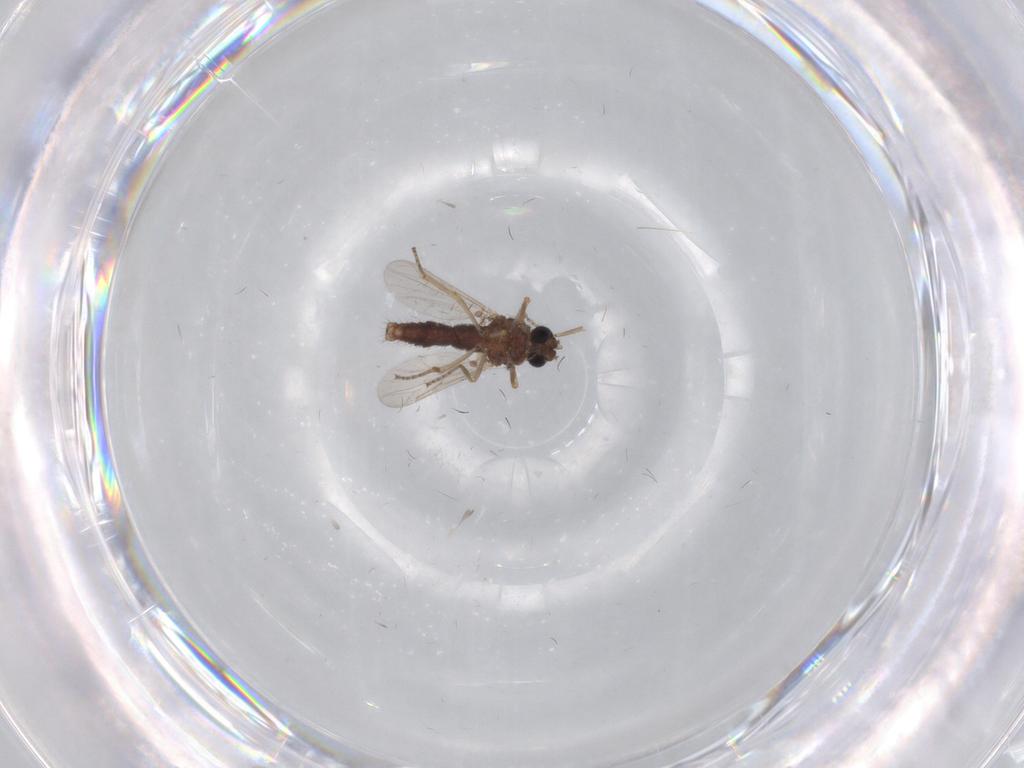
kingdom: Animalia
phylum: Arthropoda
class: Insecta
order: Diptera
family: Ceratopogonidae
